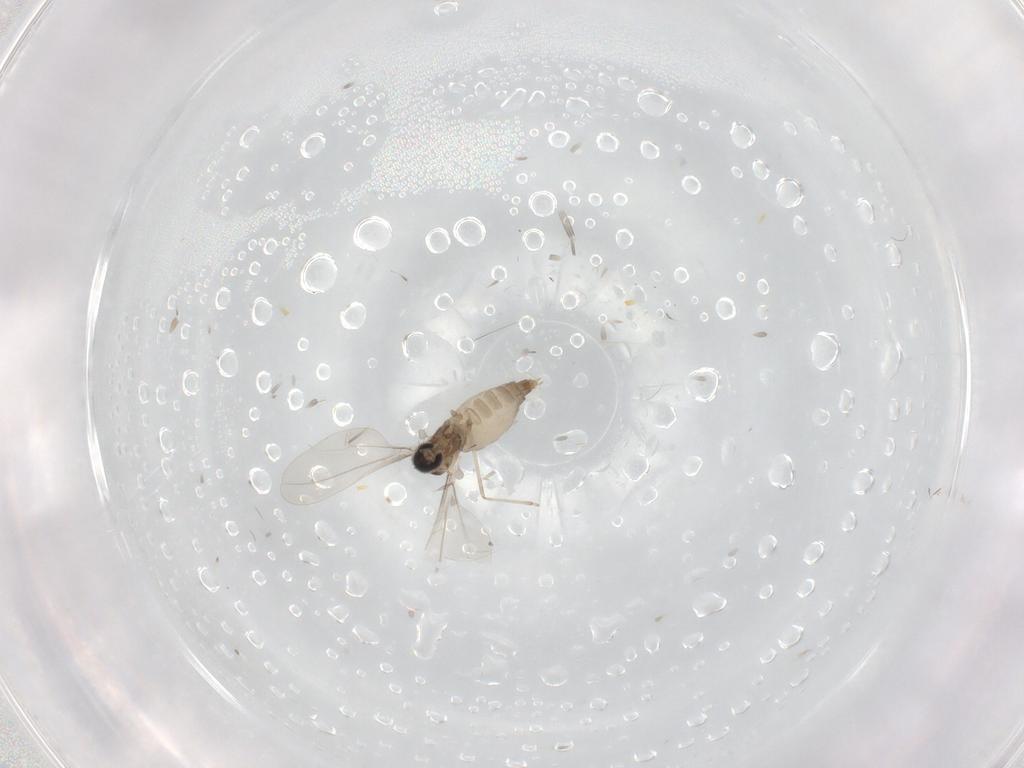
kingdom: Animalia
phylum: Arthropoda
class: Insecta
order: Diptera
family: Cecidomyiidae
